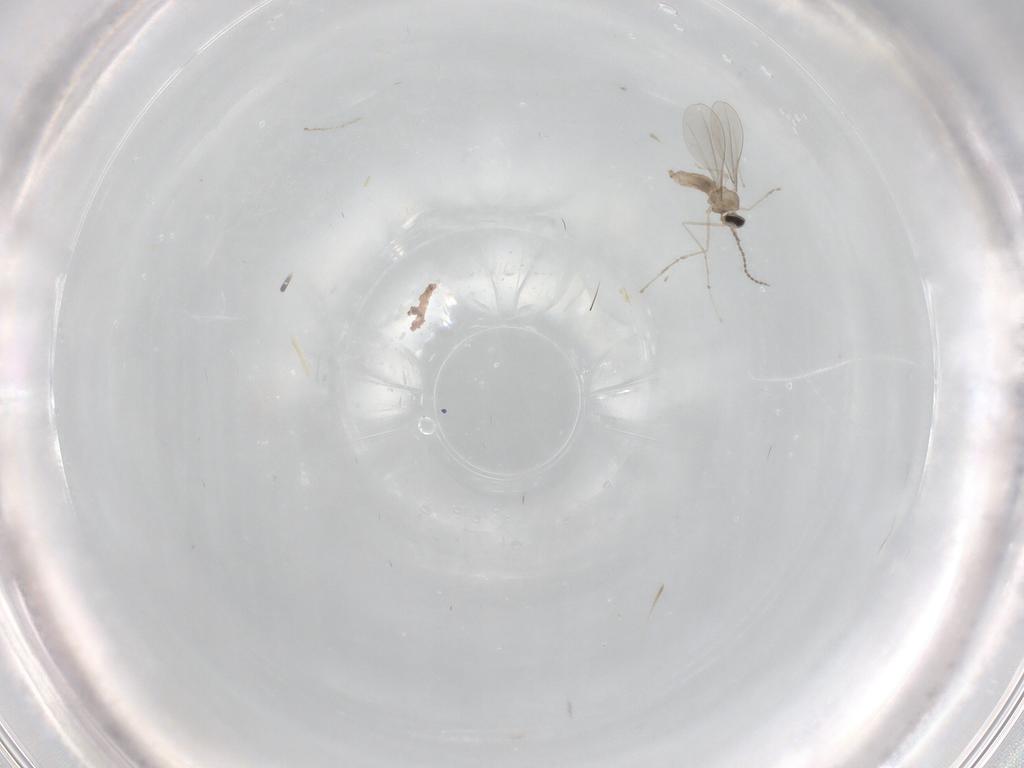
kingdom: Animalia
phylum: Arthropoda
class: Insecta
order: Diptera
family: Cecidomyiidae
